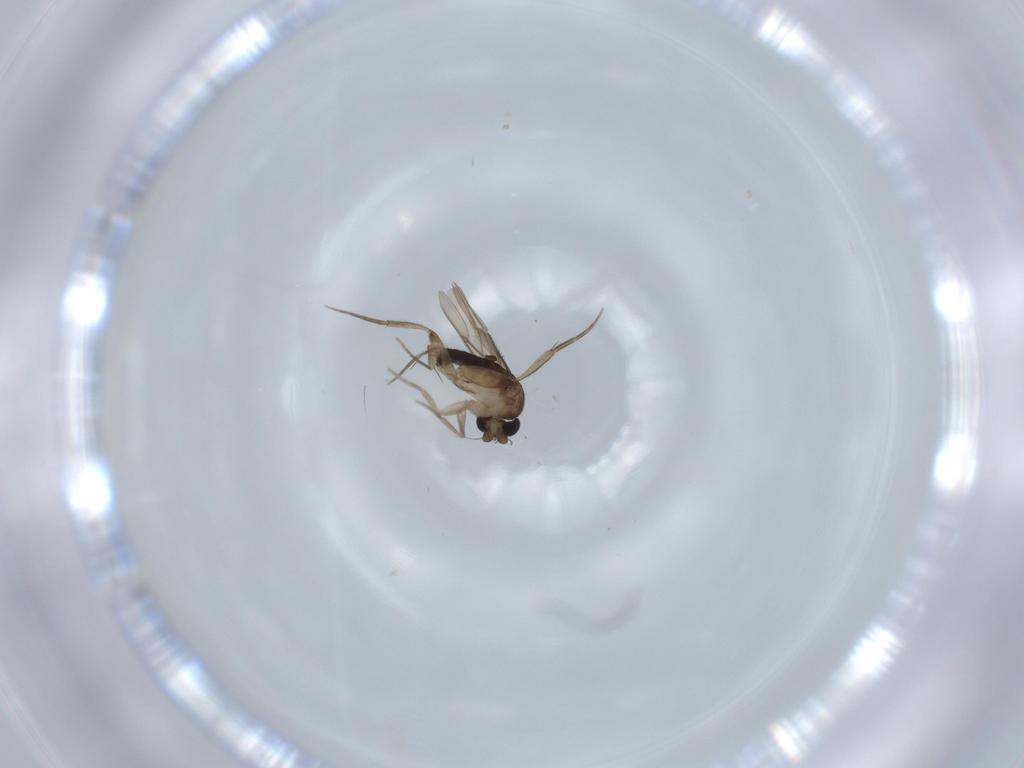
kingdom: Animalia
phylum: Arthropoda
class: Insecta
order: Diptera
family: Phoridae
